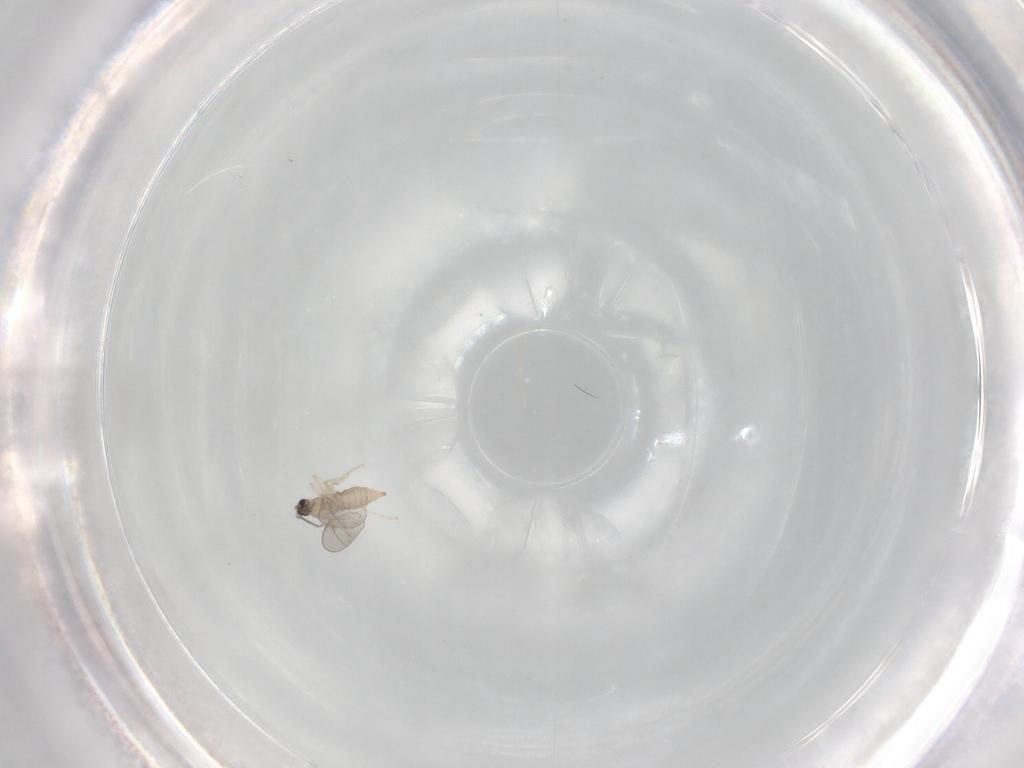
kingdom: Animalia
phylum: Arthropoda
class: Insecta
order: Diptera
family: Cecidomyiidae
